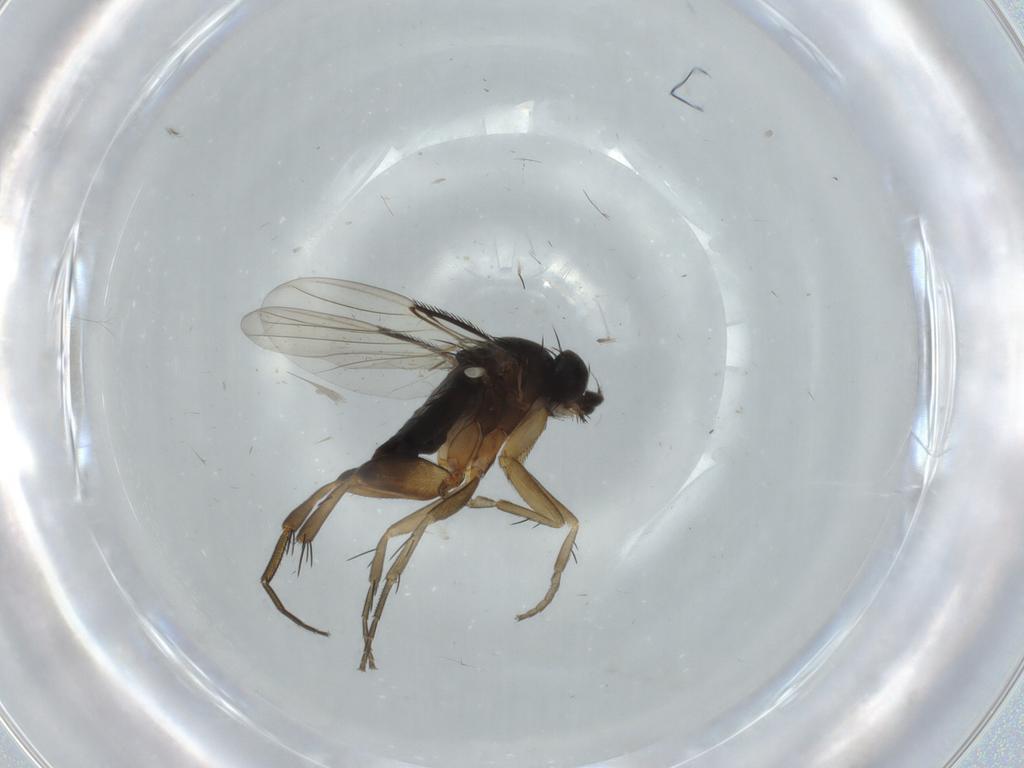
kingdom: Animalia
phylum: Arthropoda
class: Insecta
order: Diptera
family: Phoridae
